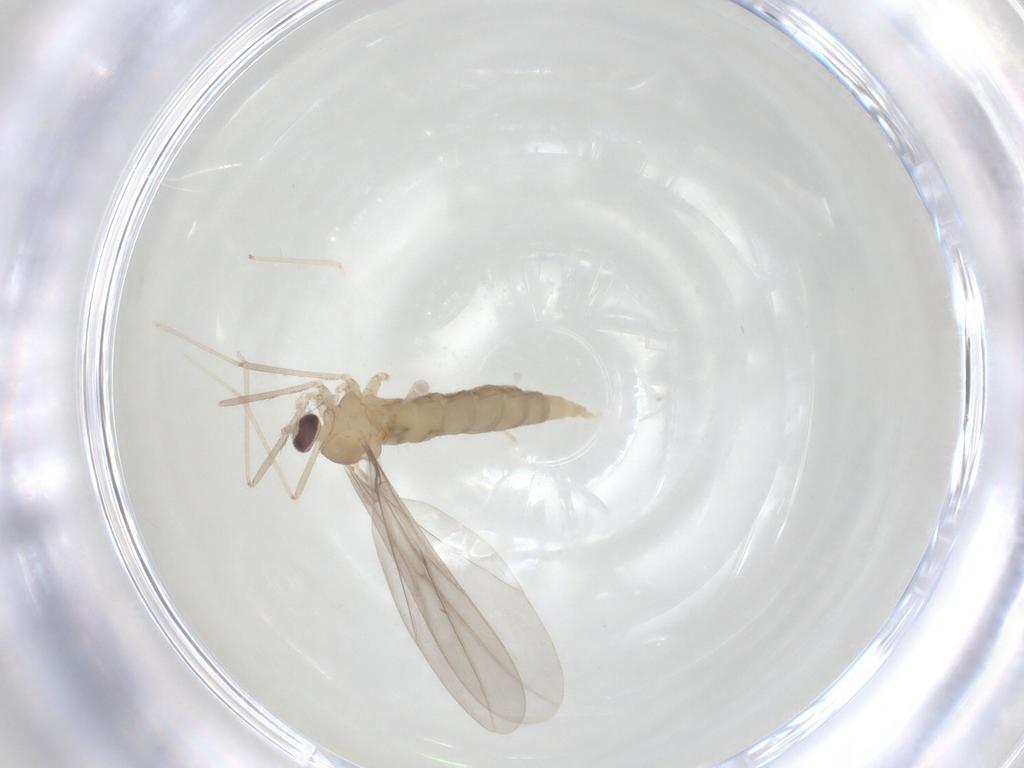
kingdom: Animalia
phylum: Arthropoda
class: Insecta
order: Diptera
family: Cecidomyiidae
